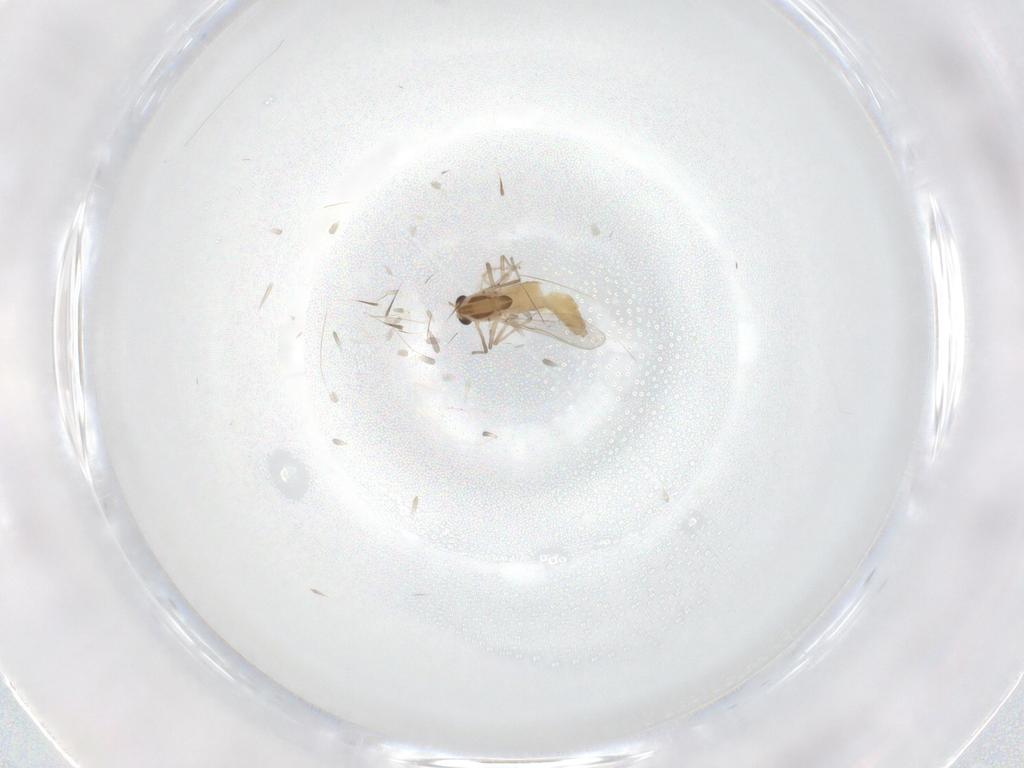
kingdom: Animalia
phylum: Arthropoda
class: Insecta
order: Diptera
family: Chironomidae
